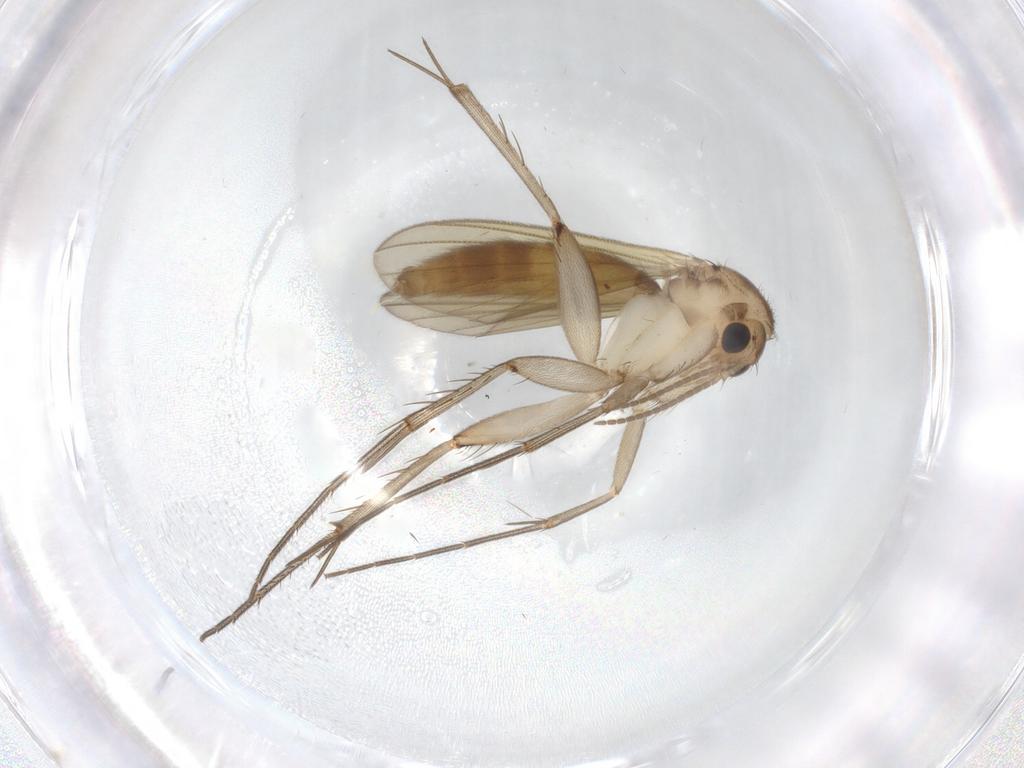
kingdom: Animalia
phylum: Arthropoda
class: Insecta
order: Diptera
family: Mycetophilidae
